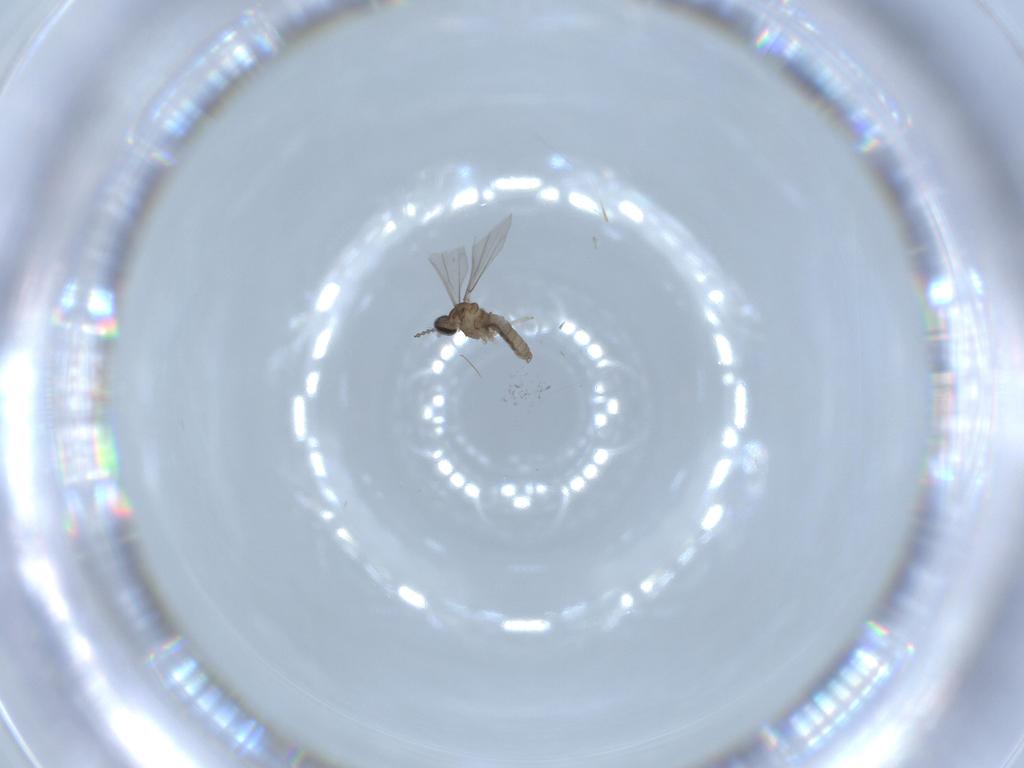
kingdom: Animalia
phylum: Arthropoda
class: Insecta
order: Diptera
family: Cecidomyiidae
